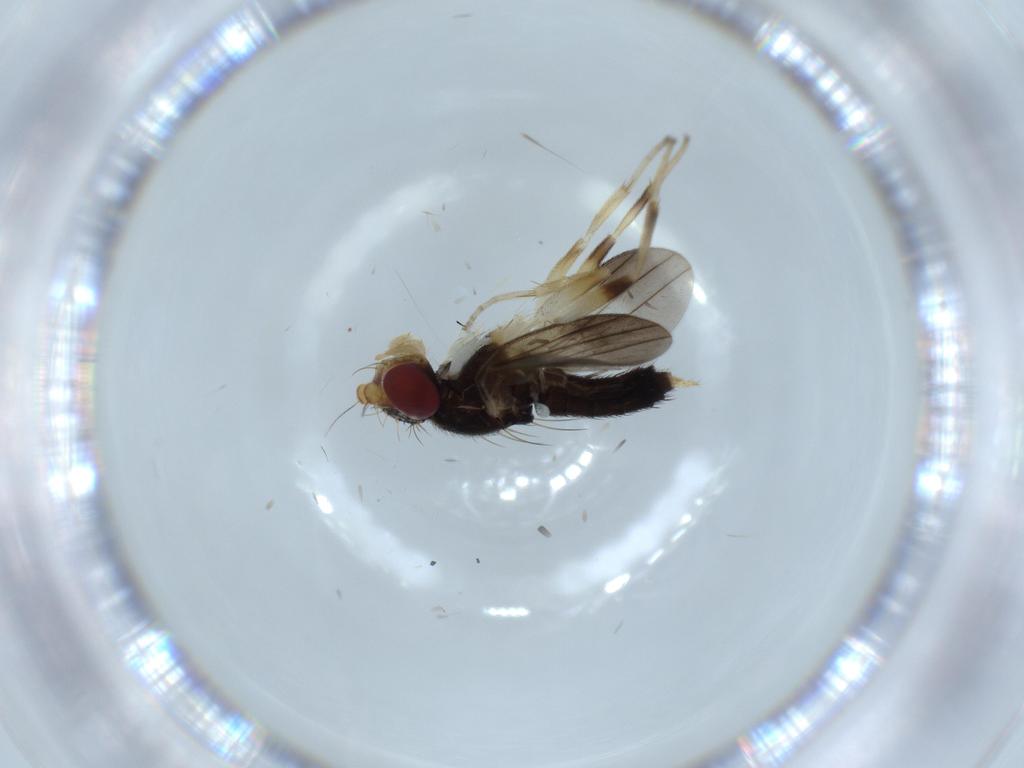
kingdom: Animalia
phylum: Arthropoda
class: Insecta
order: Diptera
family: Clusiidae
